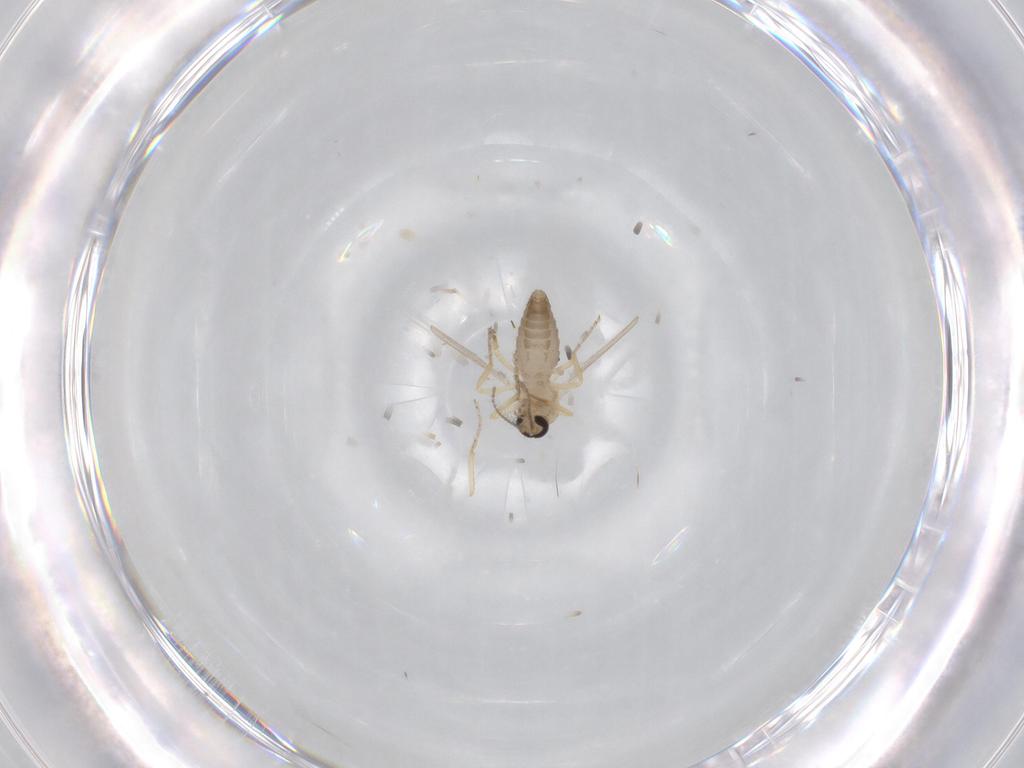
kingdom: Animalia
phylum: Arthropoda
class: Insecta
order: Diptera
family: Ceratopogonidae
